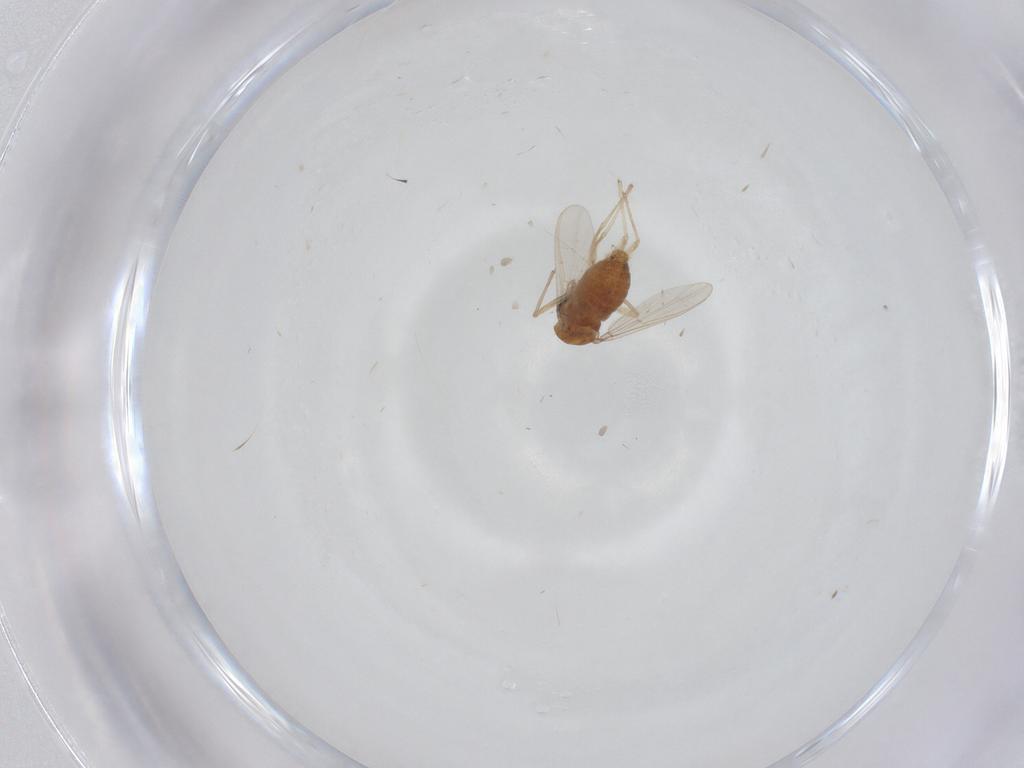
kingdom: Animalia
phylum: Arthropoda
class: Insecta
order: Diptera
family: Chironomidae
